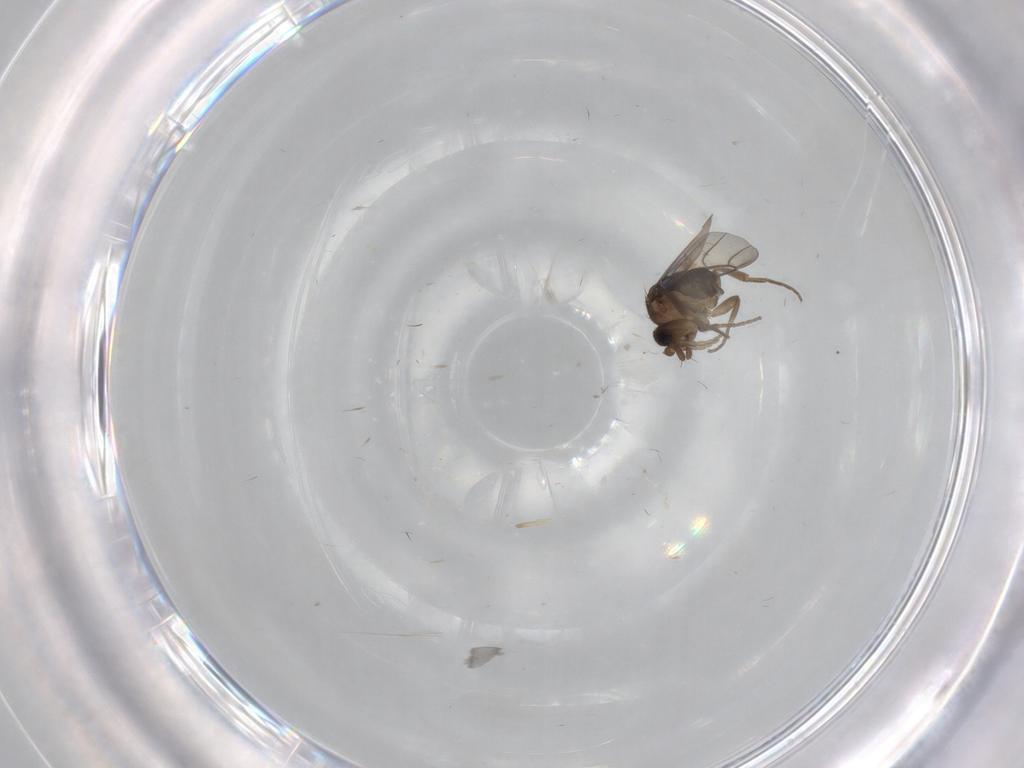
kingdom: Animalia
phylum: Arthropoda
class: Insecta
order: Diptera
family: Phoridae
